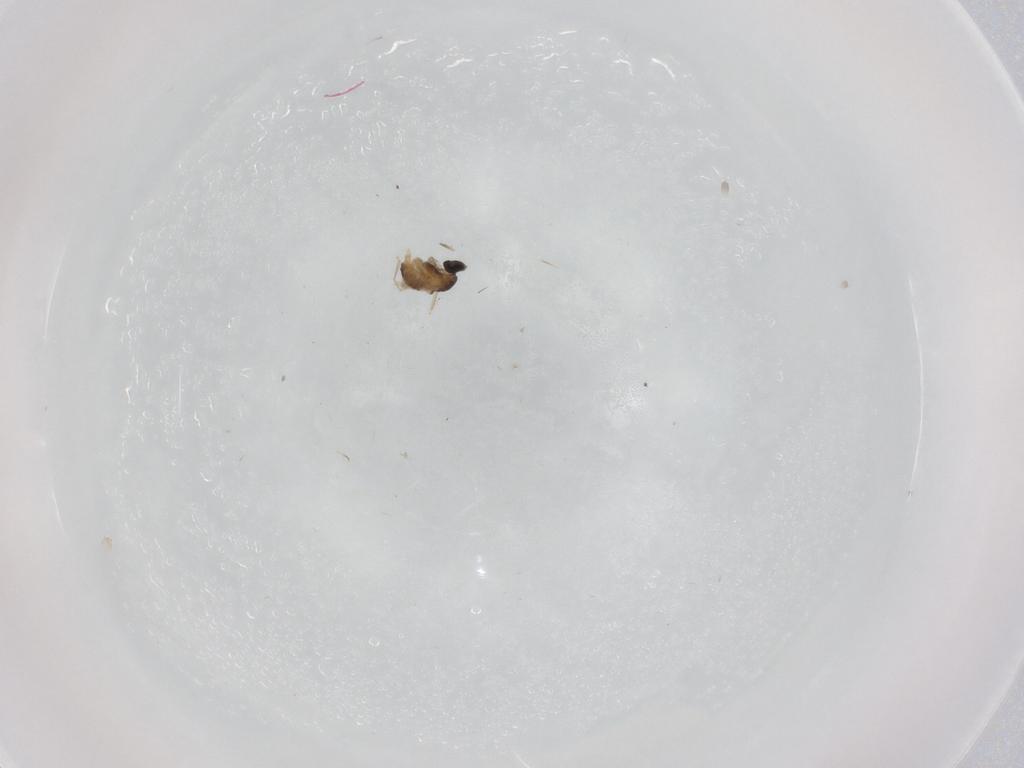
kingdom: Animalia
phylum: Arthropoda
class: Insecta
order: Diptera
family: Cecidomyiidae
